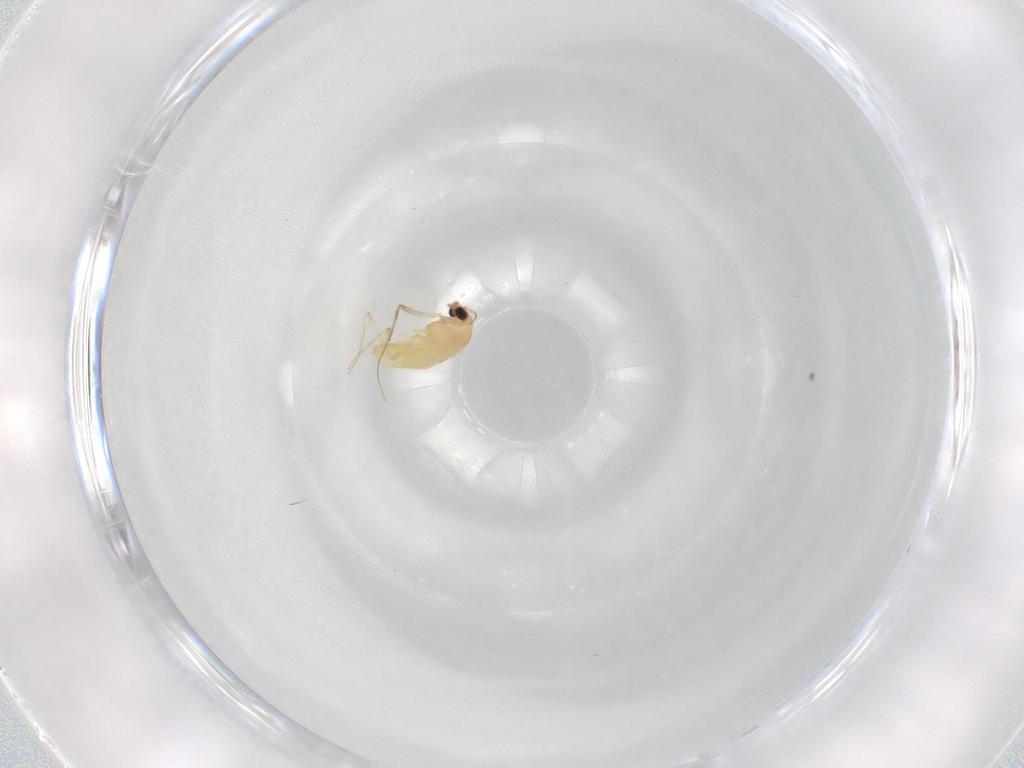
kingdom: Animalia
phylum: Arthropoda
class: Insecta
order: Diptera
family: Chironomidae
